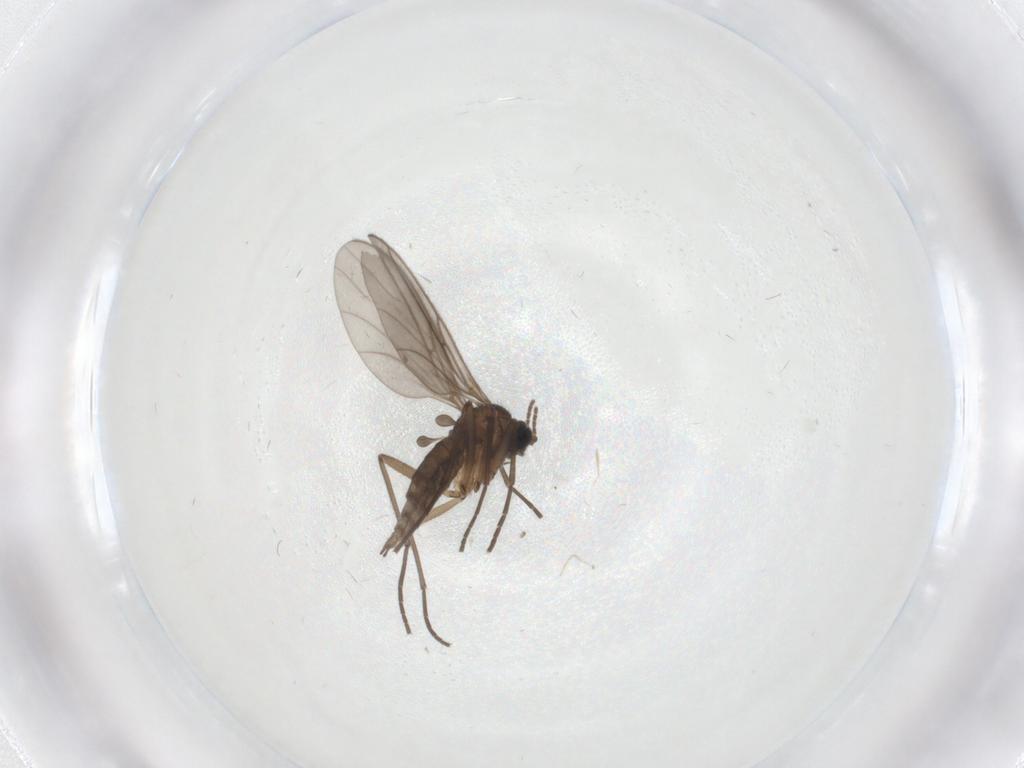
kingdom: Animalia
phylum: Arthropoda
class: Insecta
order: Diptera
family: Sciaridae
